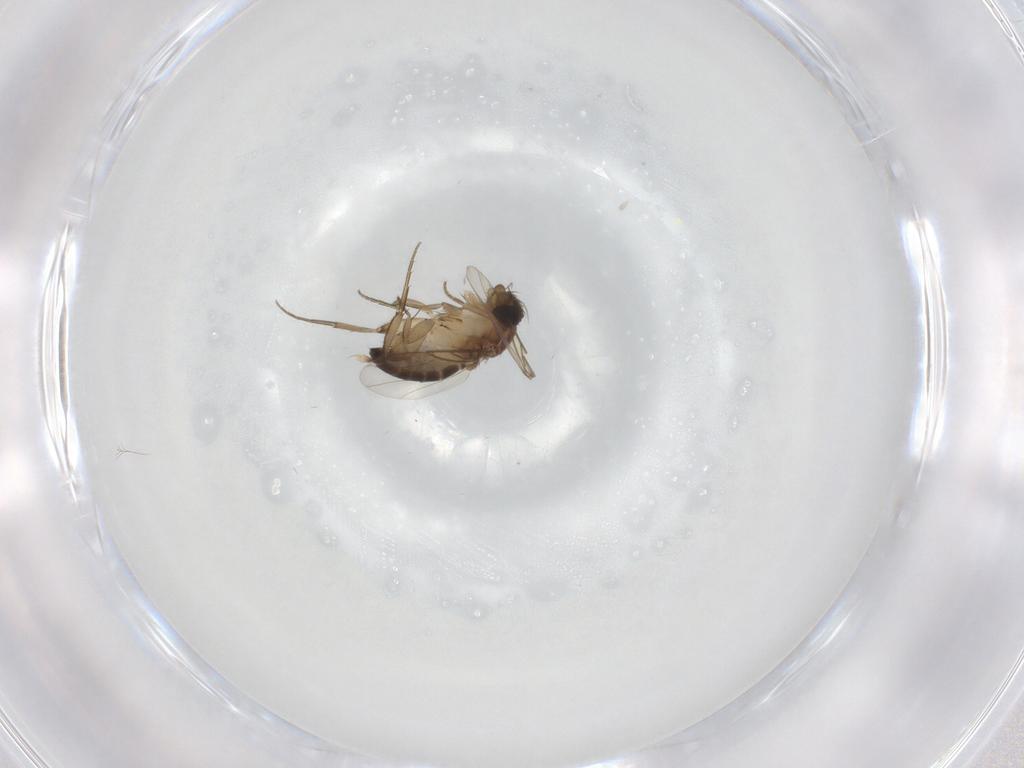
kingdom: Animalia
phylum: Arthropoda
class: Insecta
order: Diptera
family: Phoridae
